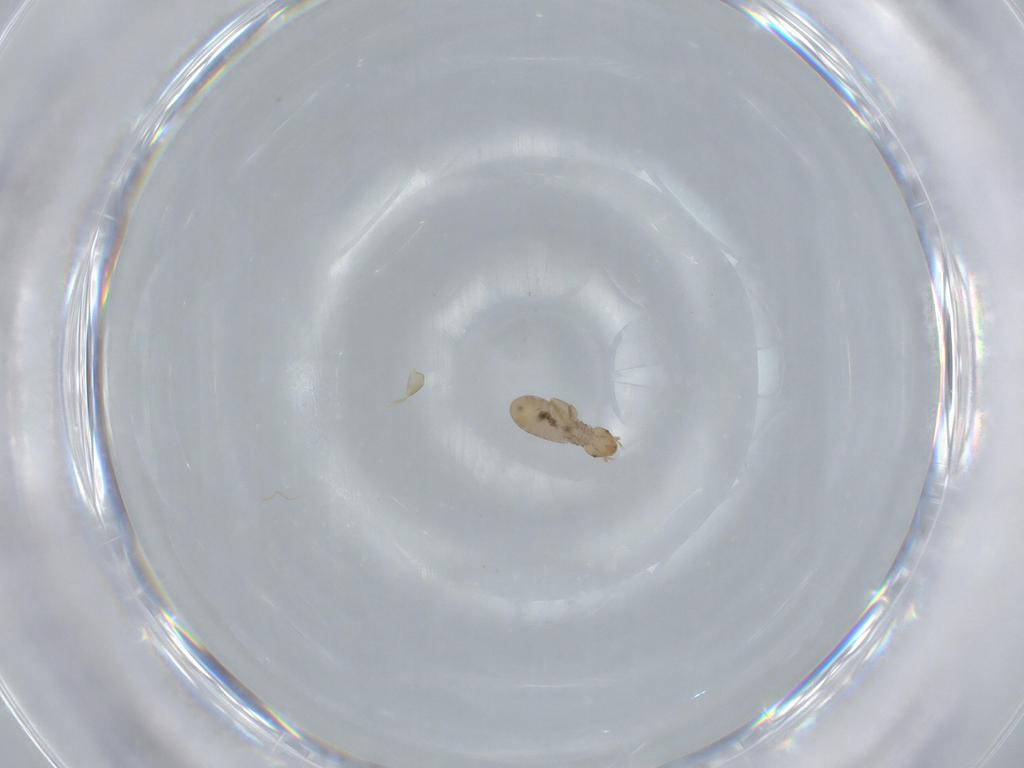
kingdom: Animalia
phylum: Arthropoda
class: Insecta
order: Psocodea
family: Liposcelididae
